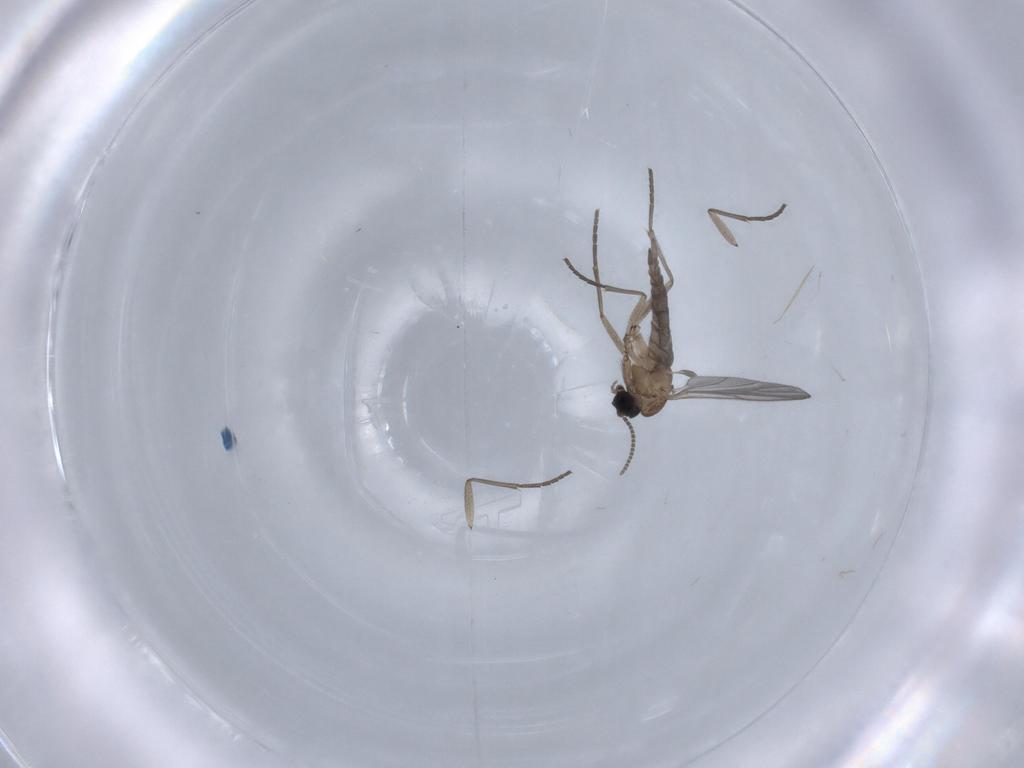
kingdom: Animalia
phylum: Arthropoda
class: Insecta
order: Diptera
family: Sciaridae
